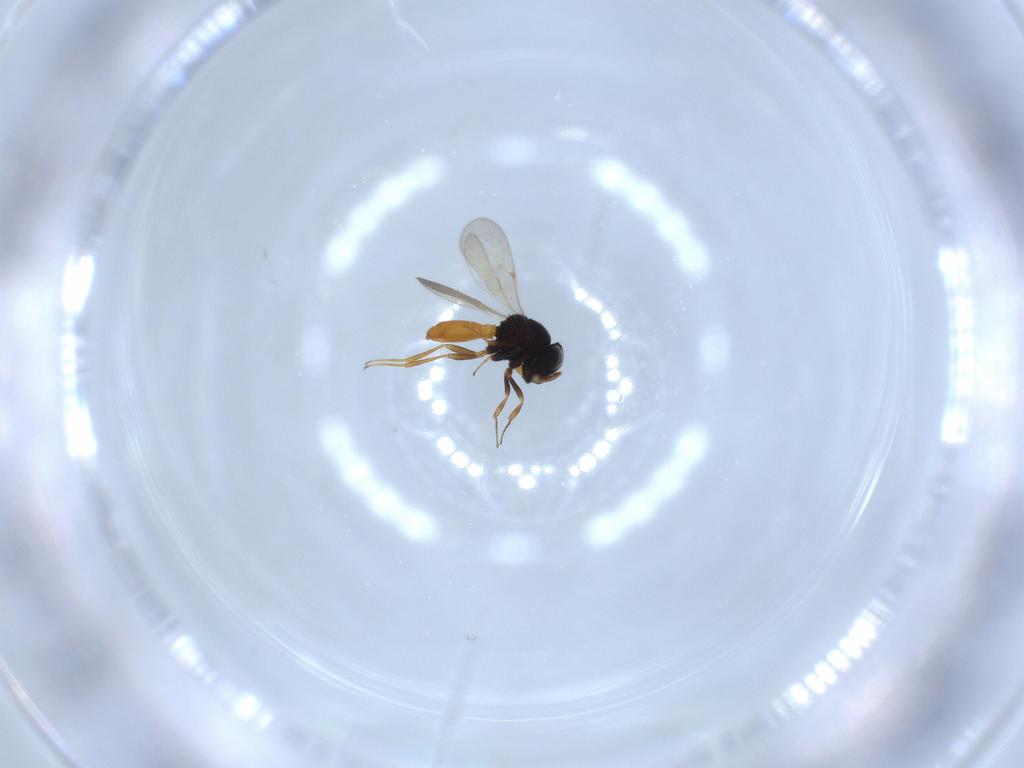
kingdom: Animalia
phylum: Arthropoda
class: Insecta
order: Hymenoptera
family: Scelionidae
